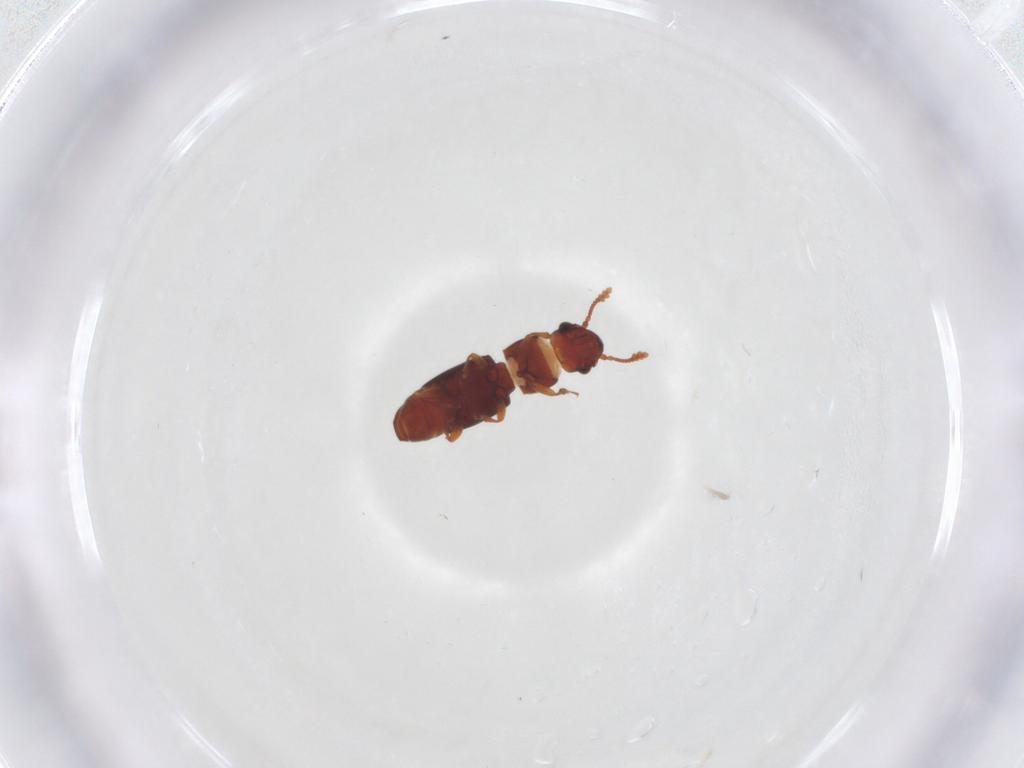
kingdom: Animalia
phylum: Arthropoda
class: Insecta
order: Coleoptera
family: Smicripidae
